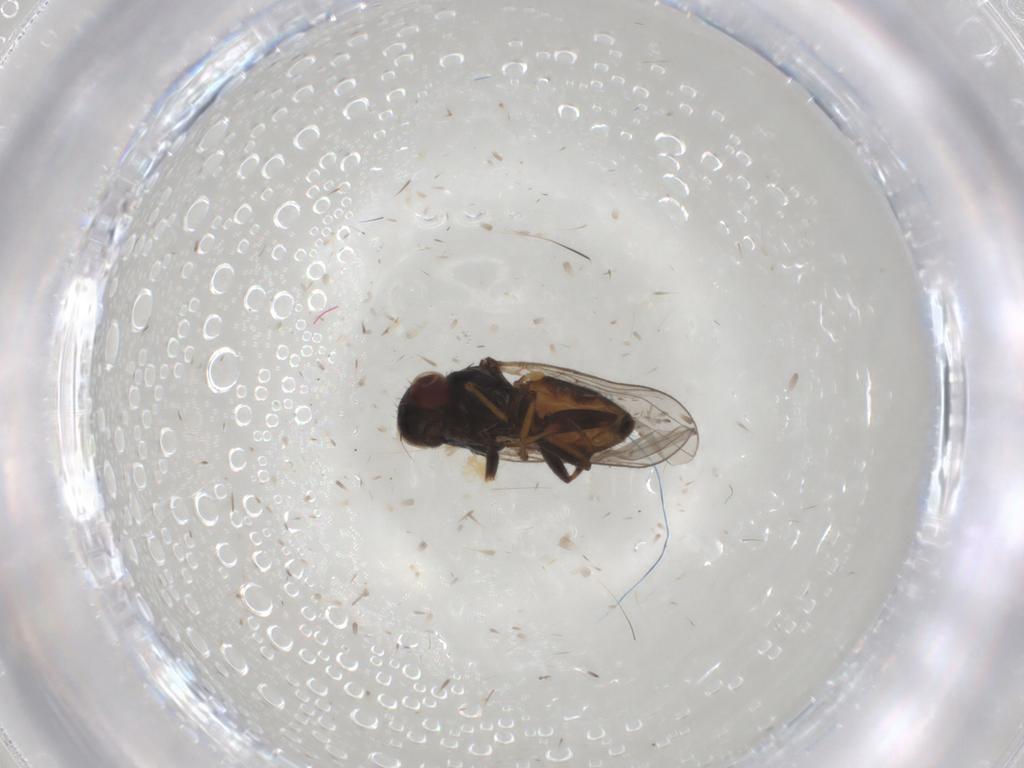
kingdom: Animalia
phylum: Arthropoda
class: Insecta
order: Diptera
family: Chloropidae
